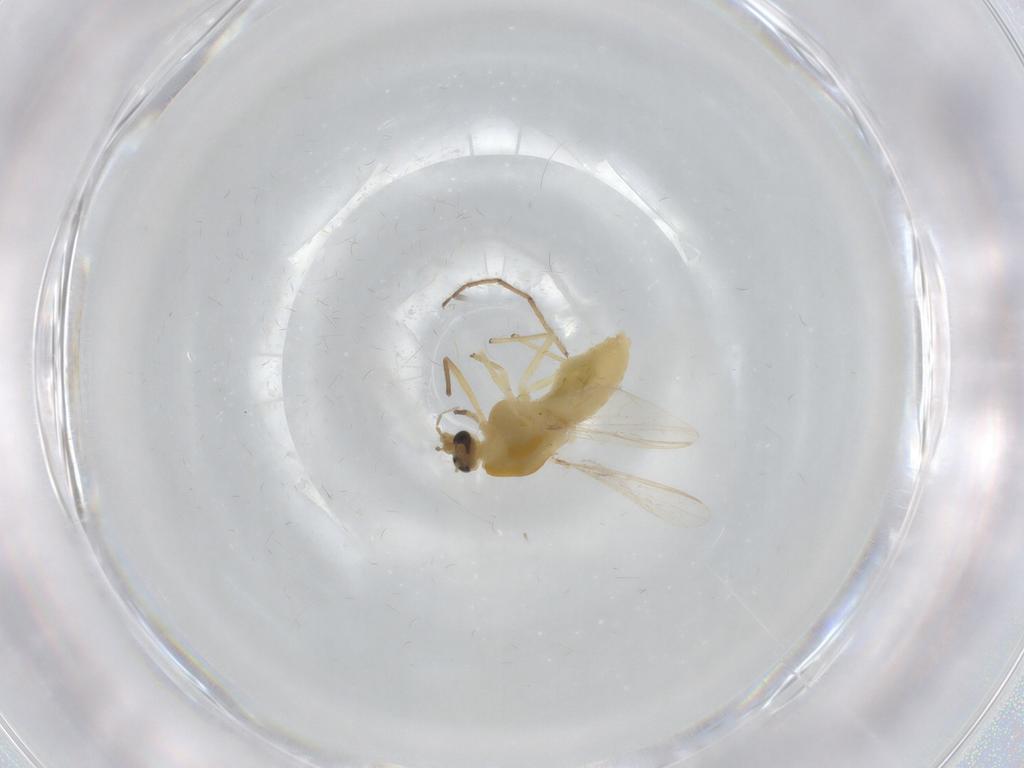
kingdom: Animalia
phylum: Arthropoda
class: Insecta
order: Diptera
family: Chironomidae
